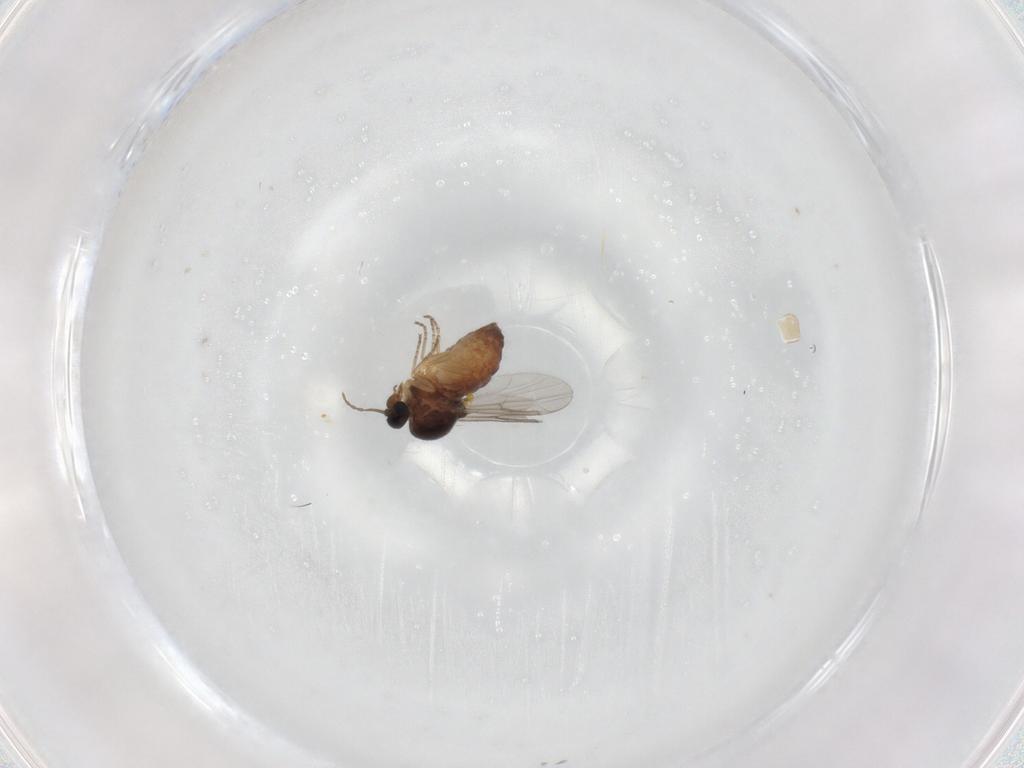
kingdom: Animalia
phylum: Arthropoda
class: Insecta
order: Diptera
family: Ceratopogonidae
